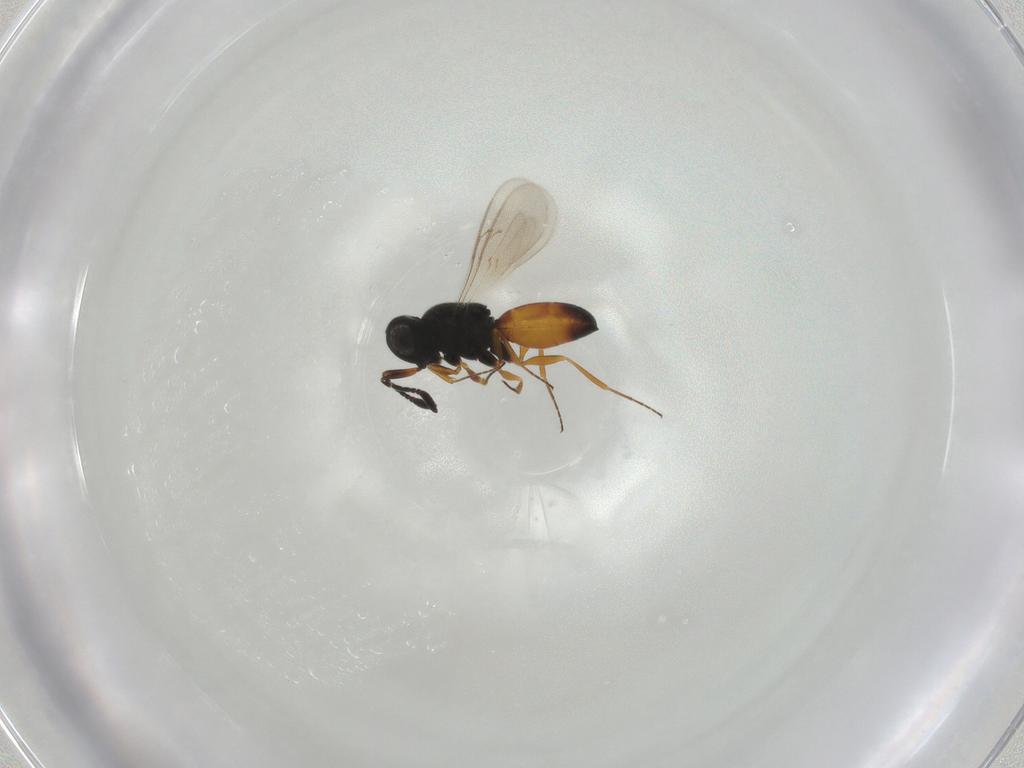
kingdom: Animalia
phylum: Arthropoda
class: Insecta
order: Hymenoptera
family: Scelionidae
